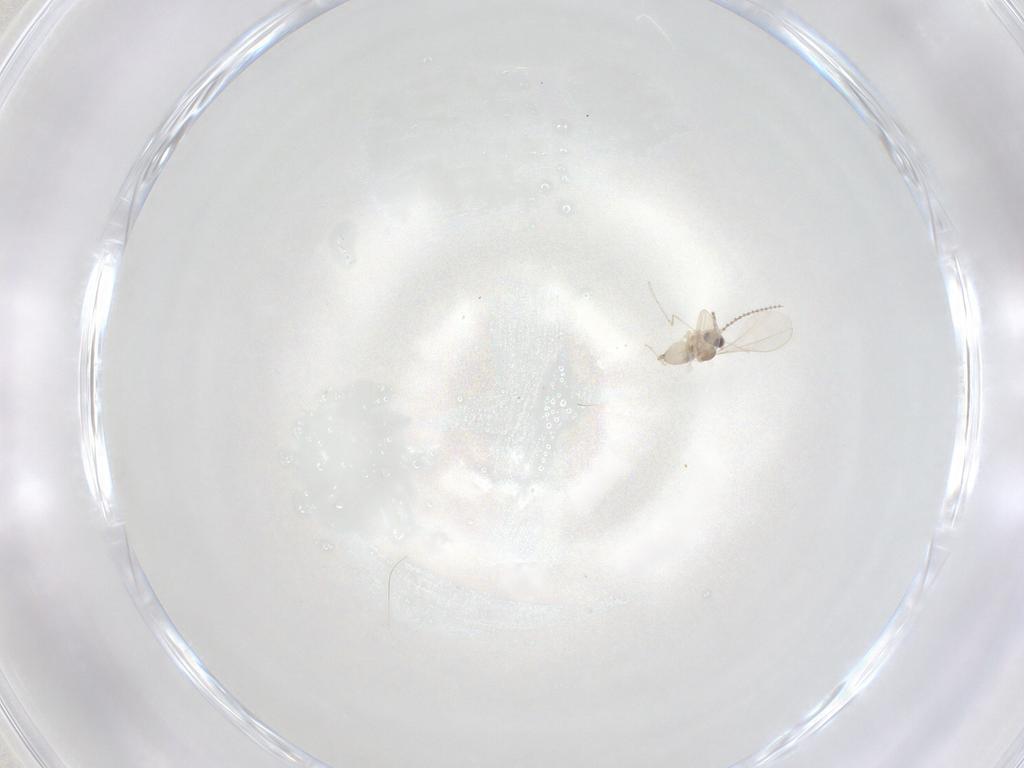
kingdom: Animalia
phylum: Arthropoda
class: Insecta
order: Diptera
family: Cecidomyiidae
